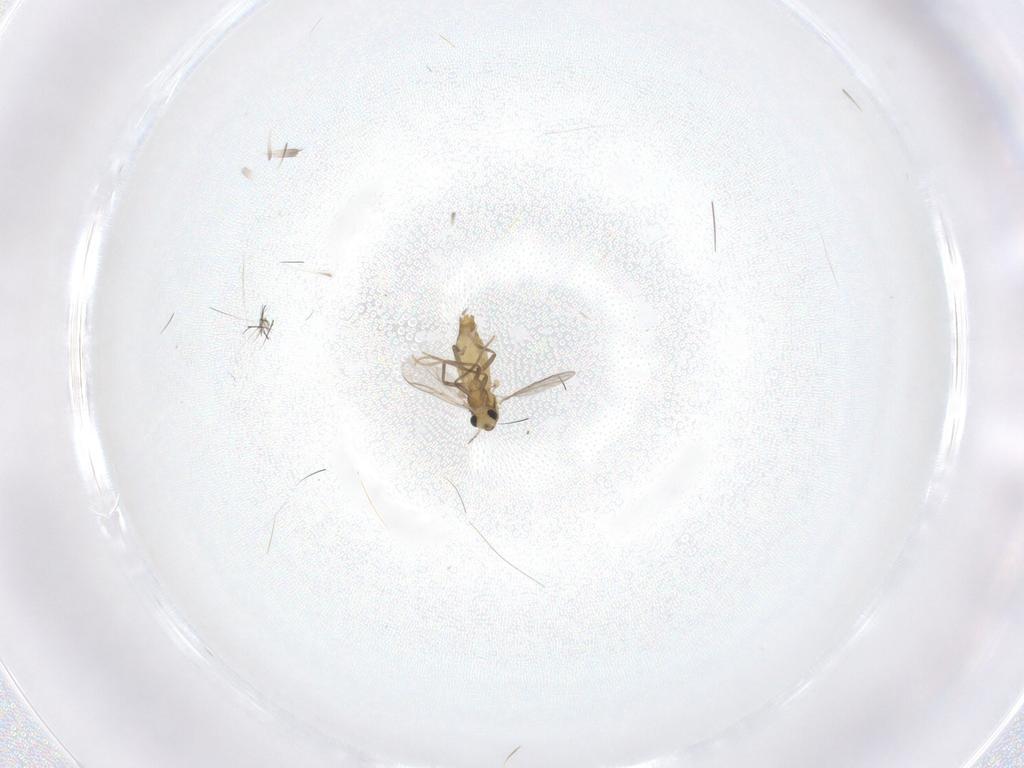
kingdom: Animalia
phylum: Arthropoda
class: Insecta
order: Diptera
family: Chironomidae
